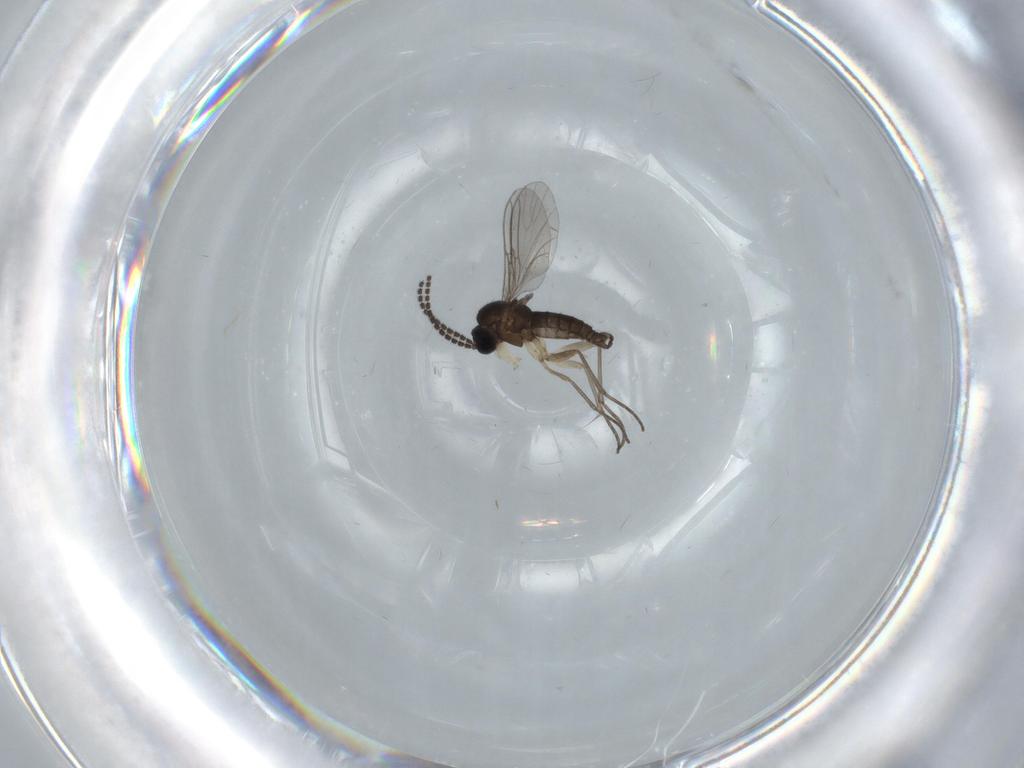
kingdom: Animalia
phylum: Arthropoda
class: Insecta
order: Diptera
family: Sciaridae
